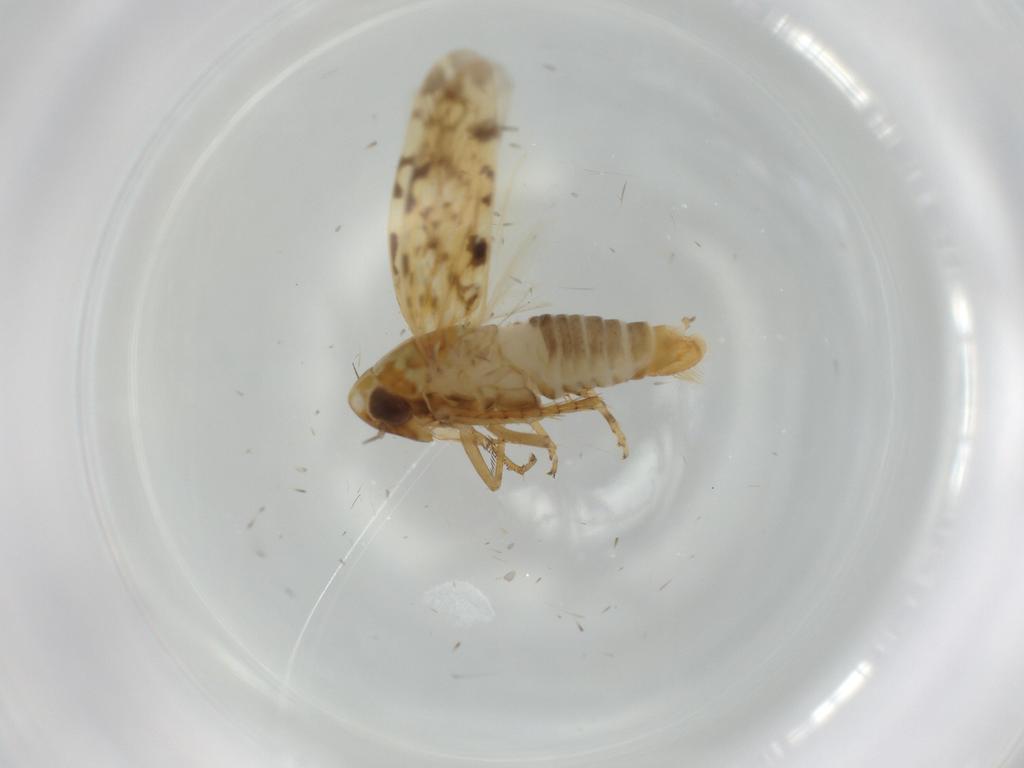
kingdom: Animalia
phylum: Arthropoda
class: Insecta
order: Hemiptera
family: Cicadellidae
